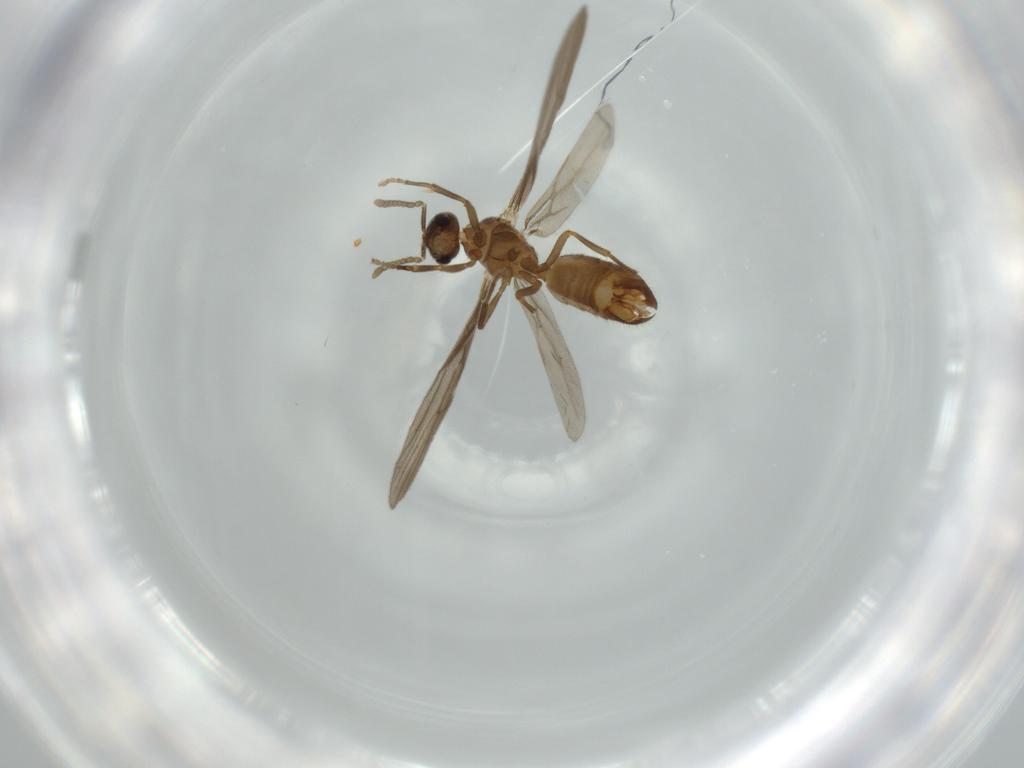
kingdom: Animalia
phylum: Arthropoda
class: Insecta
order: Hymenoptera
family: Formicidae
